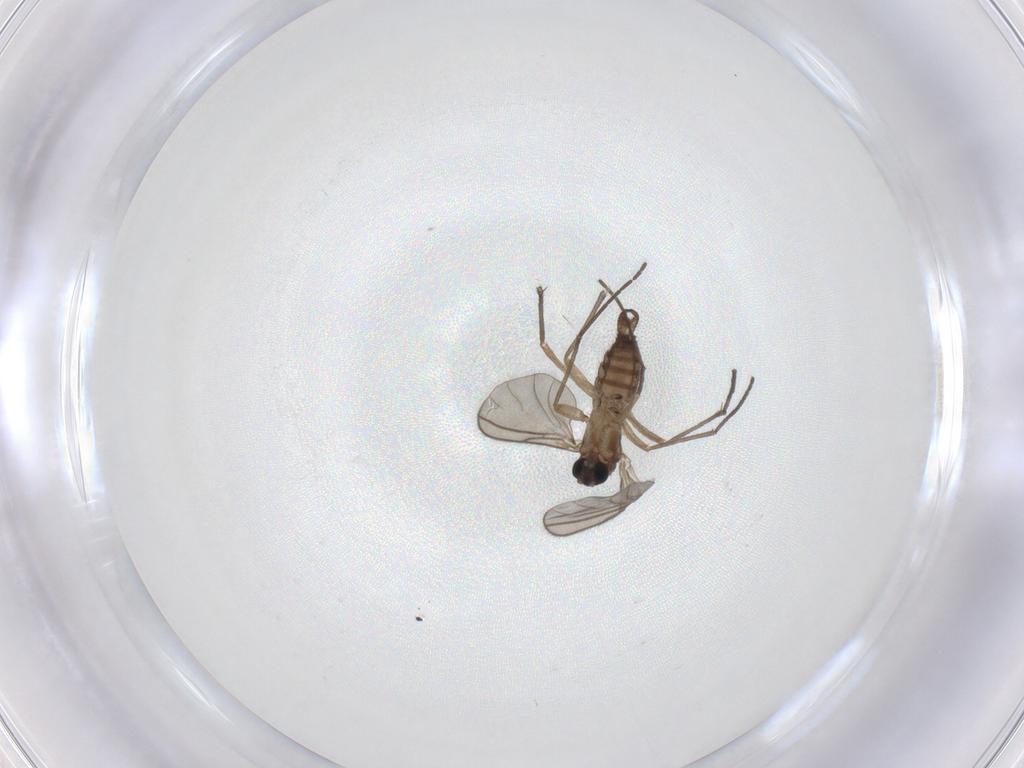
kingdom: Animalia
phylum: Arthropoda
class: Insecta
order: Diptera
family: Sciaridae
